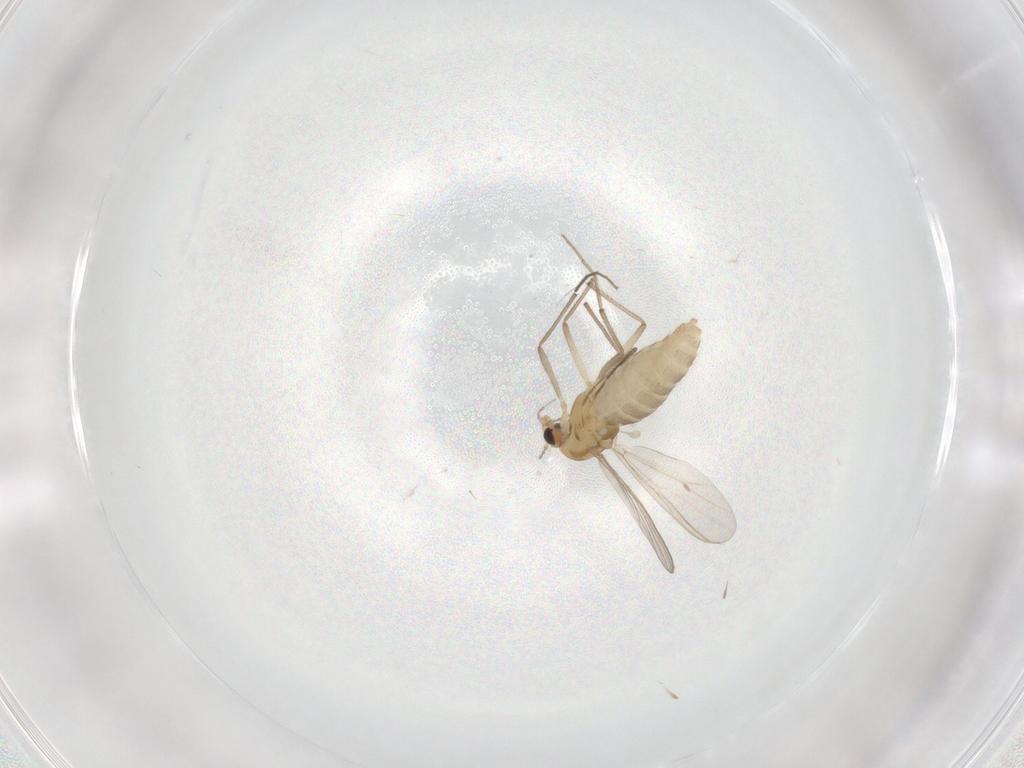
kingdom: Animalia
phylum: Arthropoda
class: Insecta
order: Diptera
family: Chironomidae
